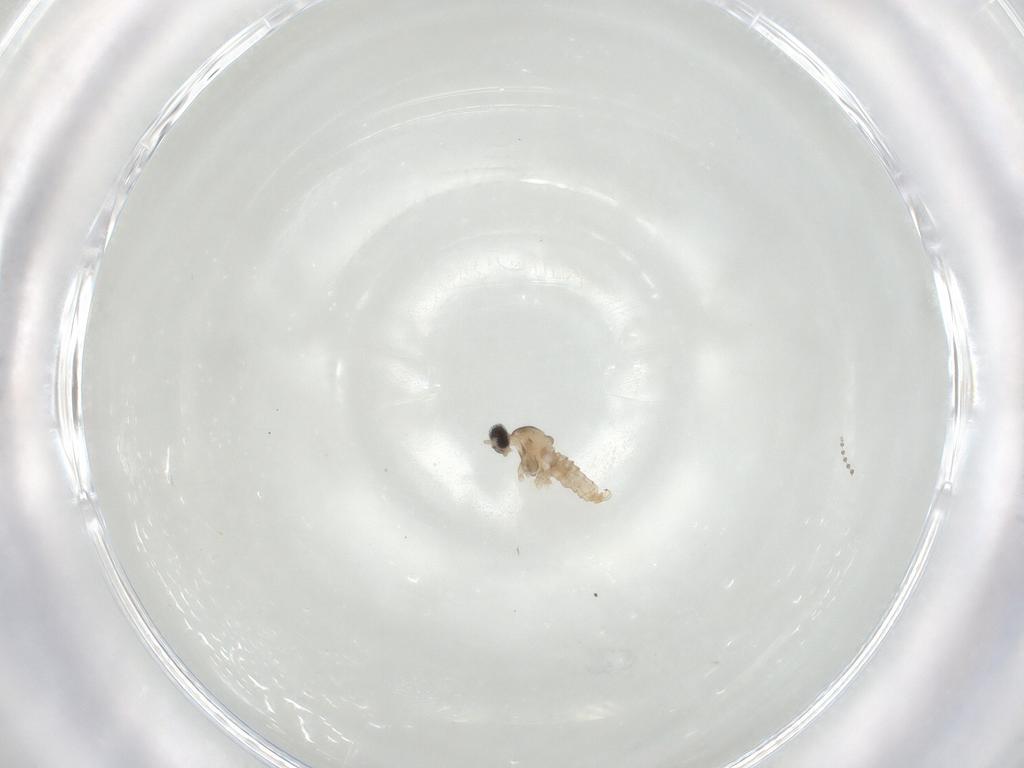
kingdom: Animalia
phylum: Arthropoda
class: Insecta
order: Diptera
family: Cecidomyiidae
